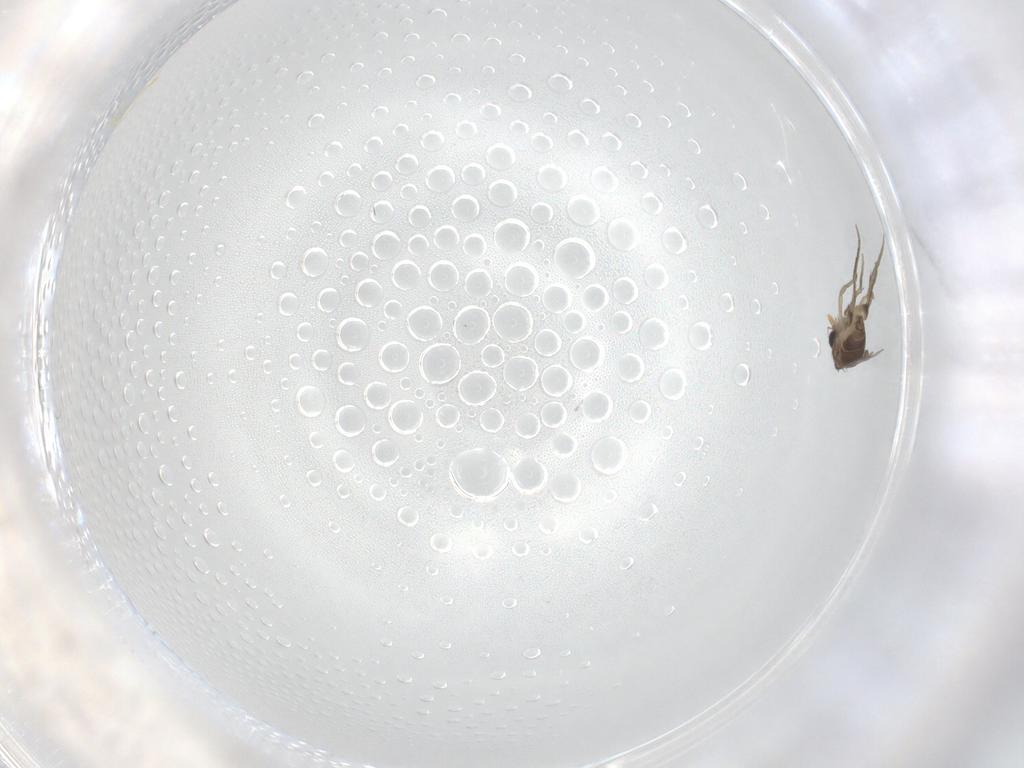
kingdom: Animalia
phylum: Arthropoda
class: Insecta
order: Diptera
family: Phoridae
